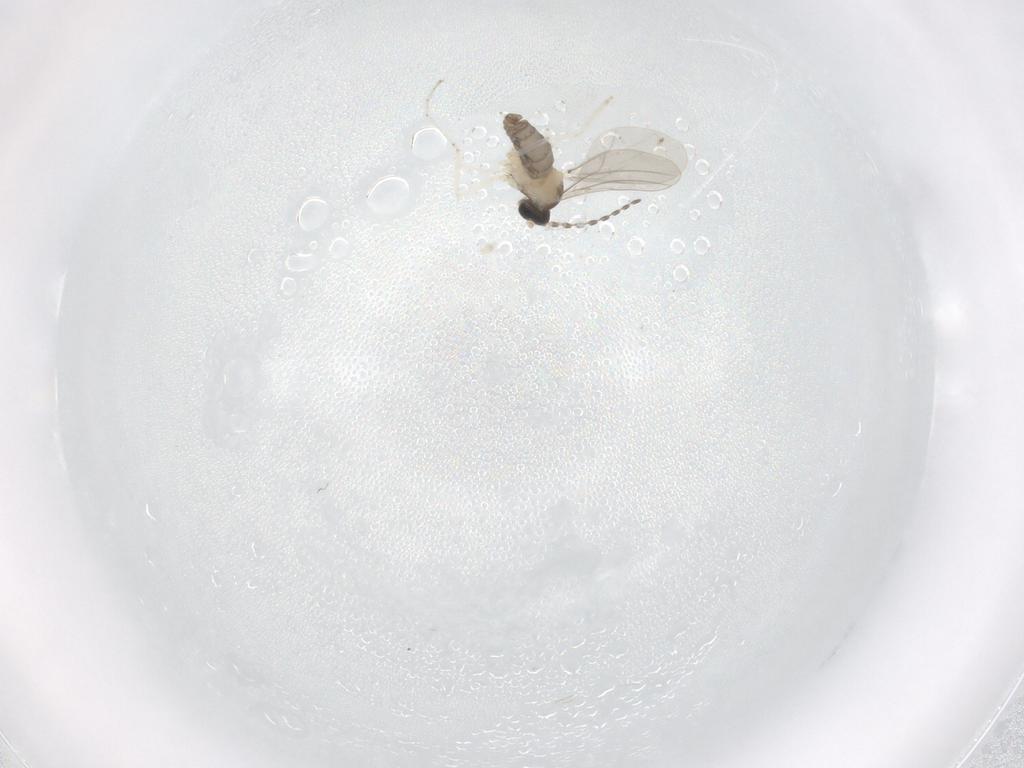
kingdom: Animalia
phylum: Arthropoda
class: Insecta
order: Diptera
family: Cecidomyiidae
